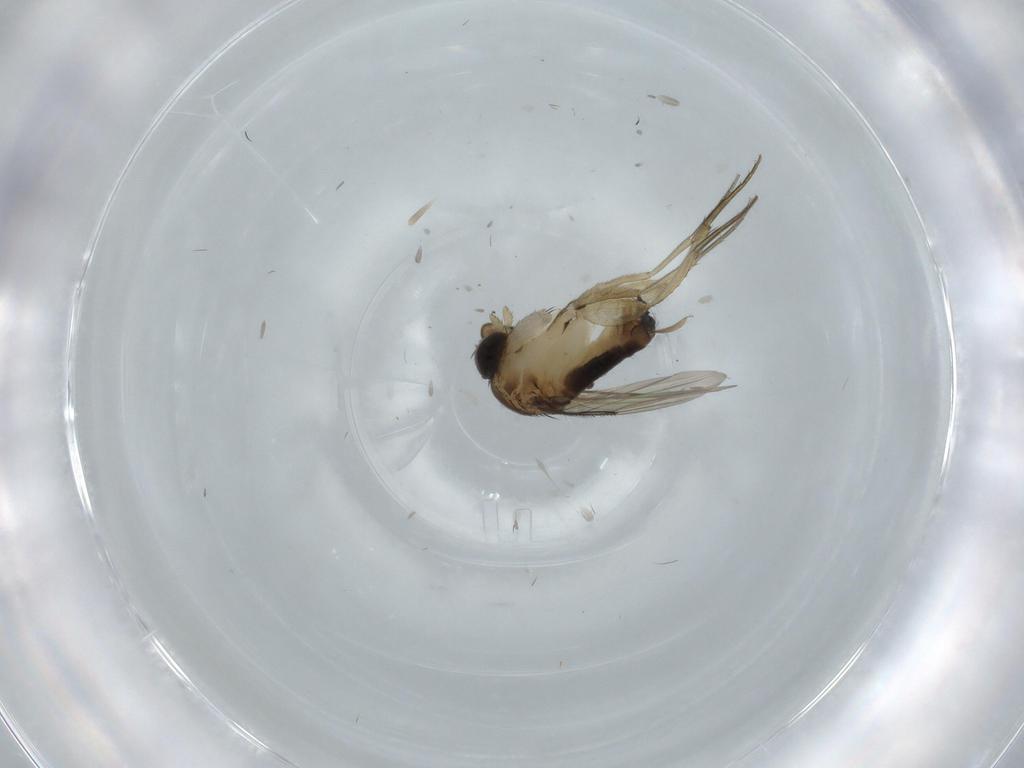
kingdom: Animalia
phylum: Arthropoda
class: Insecta
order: Diptera
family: Phoridae
